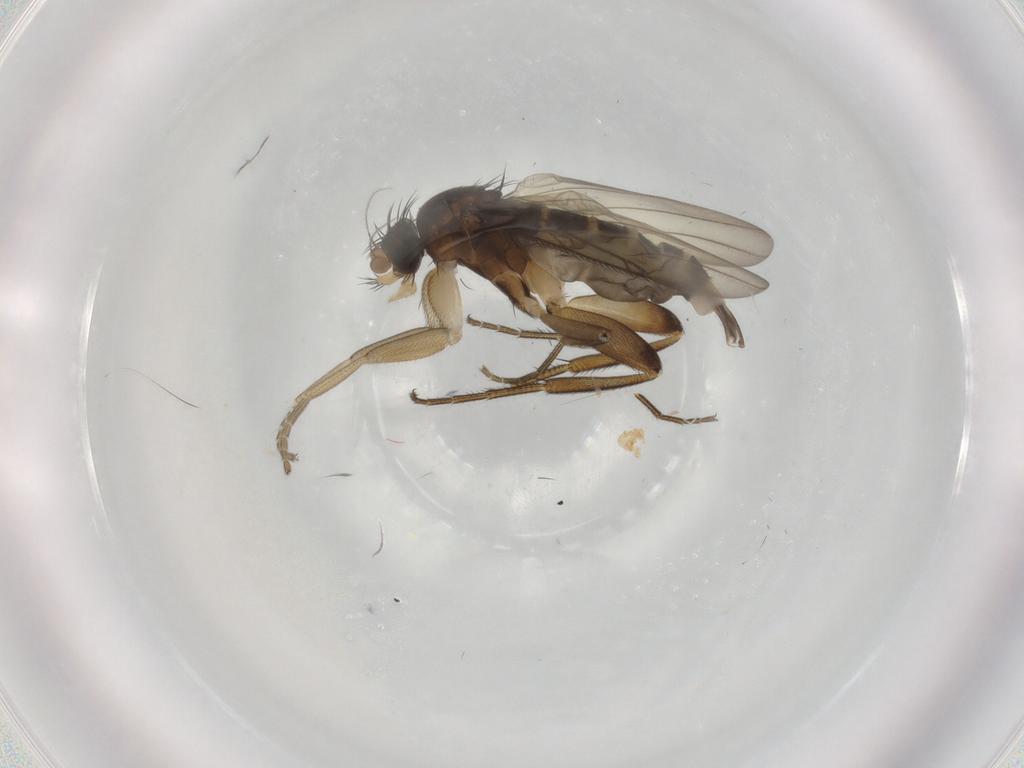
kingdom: Animalia
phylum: Arthropoda
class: Insecta
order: Diptera
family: Phoridae
